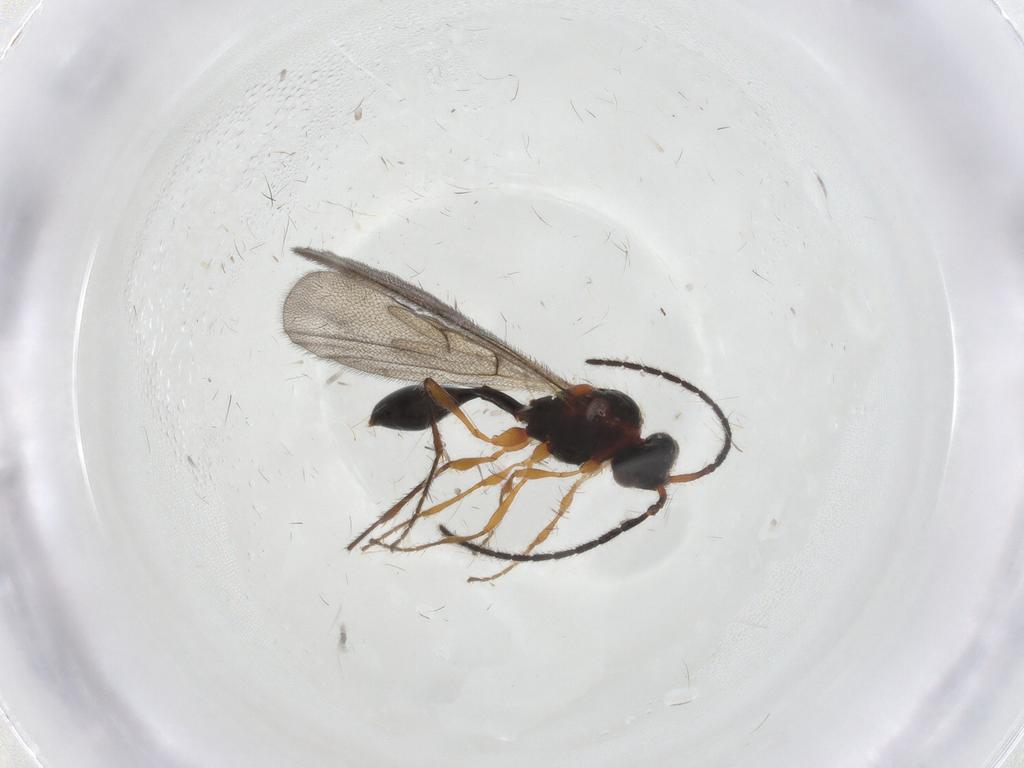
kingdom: Animalia
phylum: Arthropoda
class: Insecta
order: Hymenoptera
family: Diapriidae
